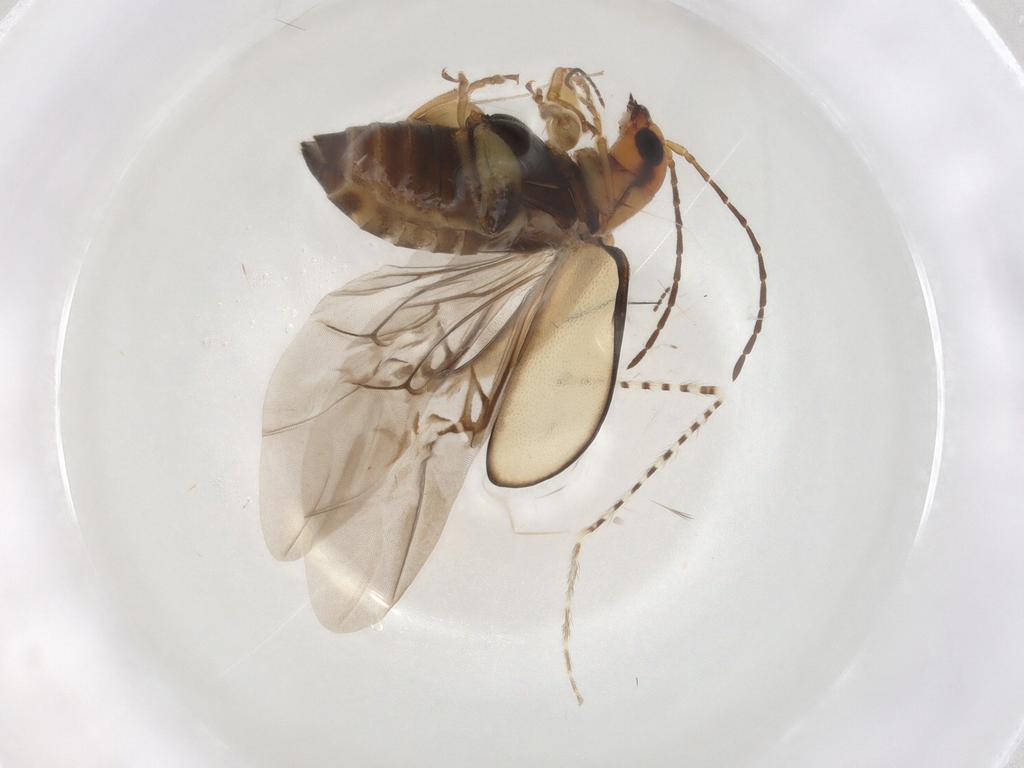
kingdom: Animalia
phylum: Arthropoda
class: Insecta
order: Coleoptera
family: Chrysomelidae
